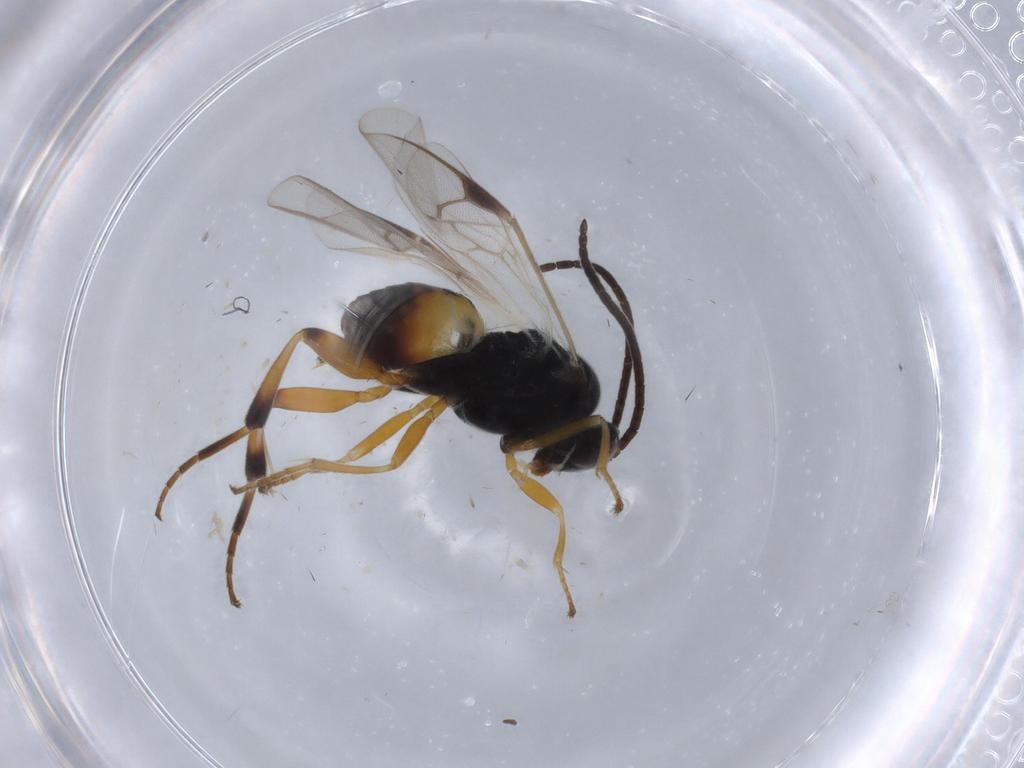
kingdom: Animalia
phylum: Arthropoda
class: Insecta
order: Hymenoptera
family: Braconidae
